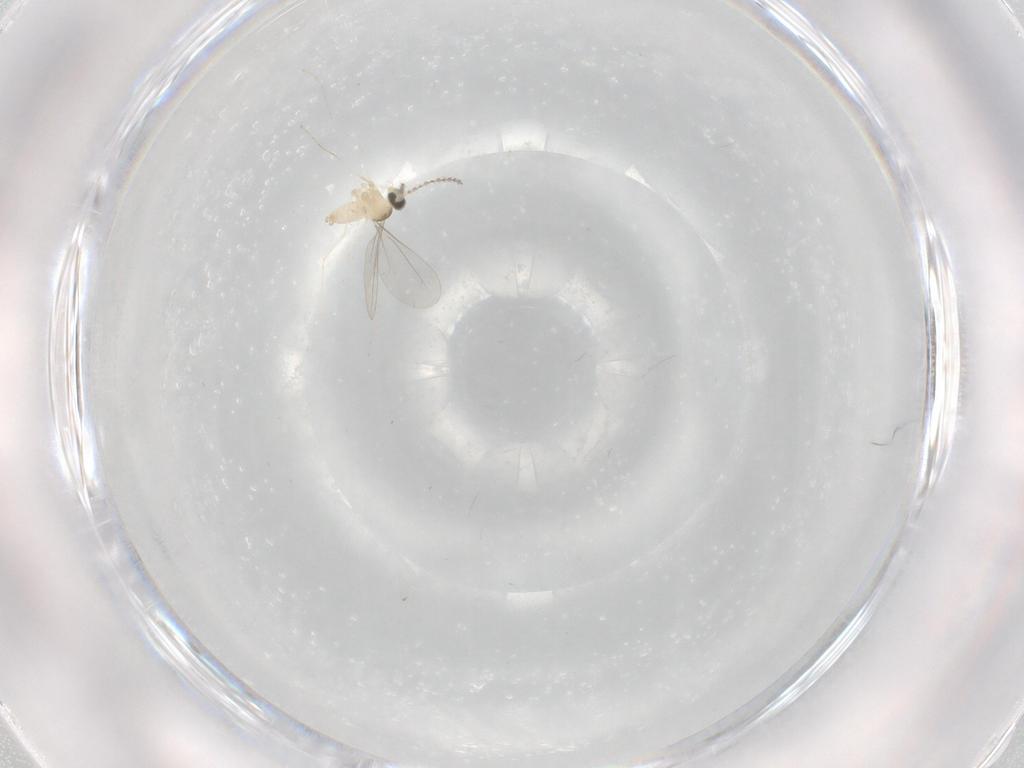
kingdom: Animalia
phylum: Arthropoda
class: Insecta
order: Diptera
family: Cecidomyiidae
